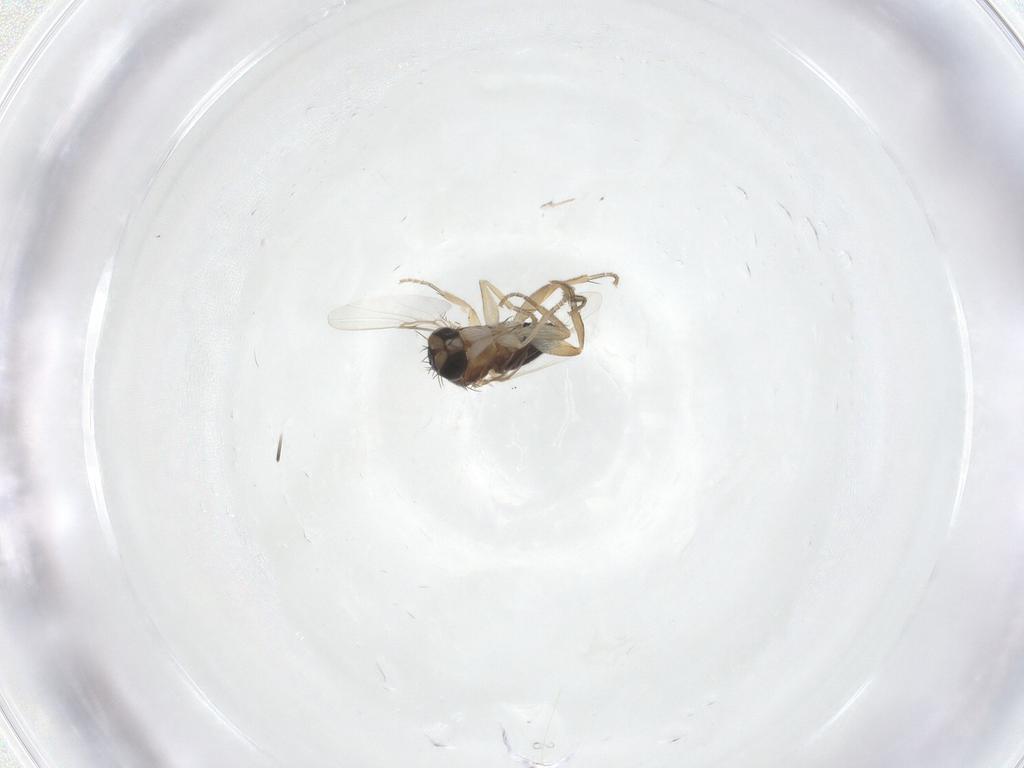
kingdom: Animalia
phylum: Arthropoda
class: Insecta
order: Diptera
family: Phoridae
